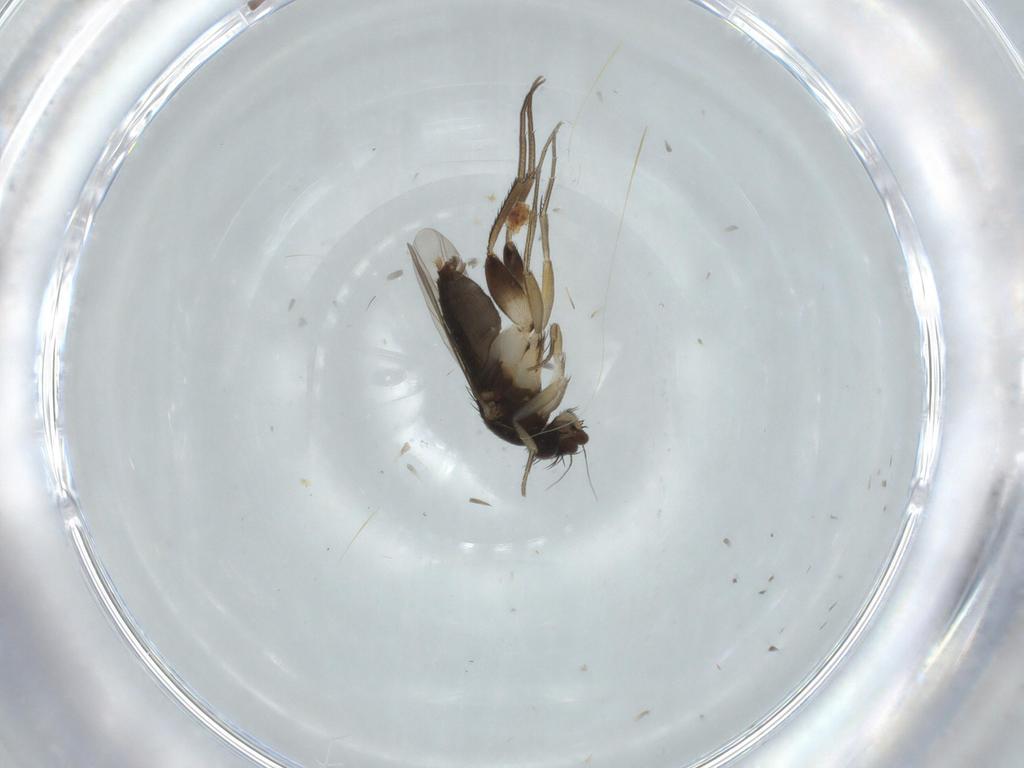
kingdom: Animalia
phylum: Arthropoda
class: Insecta
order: Diptera
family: Phoridae
